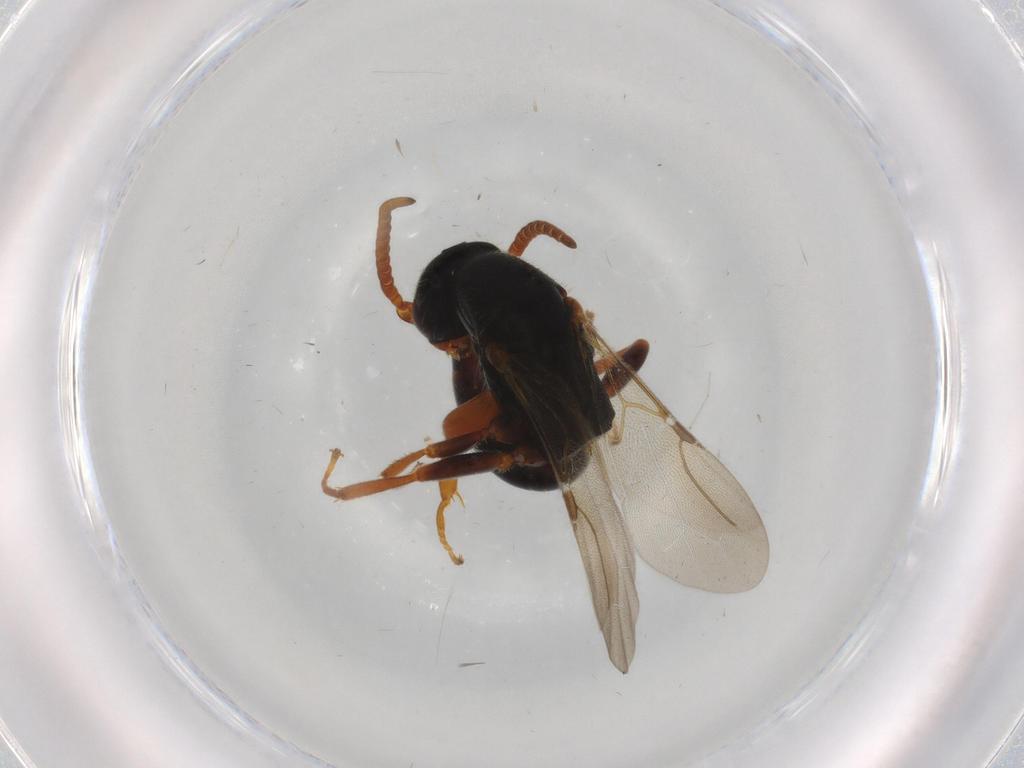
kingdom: Animalia
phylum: Arthropoda
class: Insecta
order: Hymenoptera
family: Bethylidae
